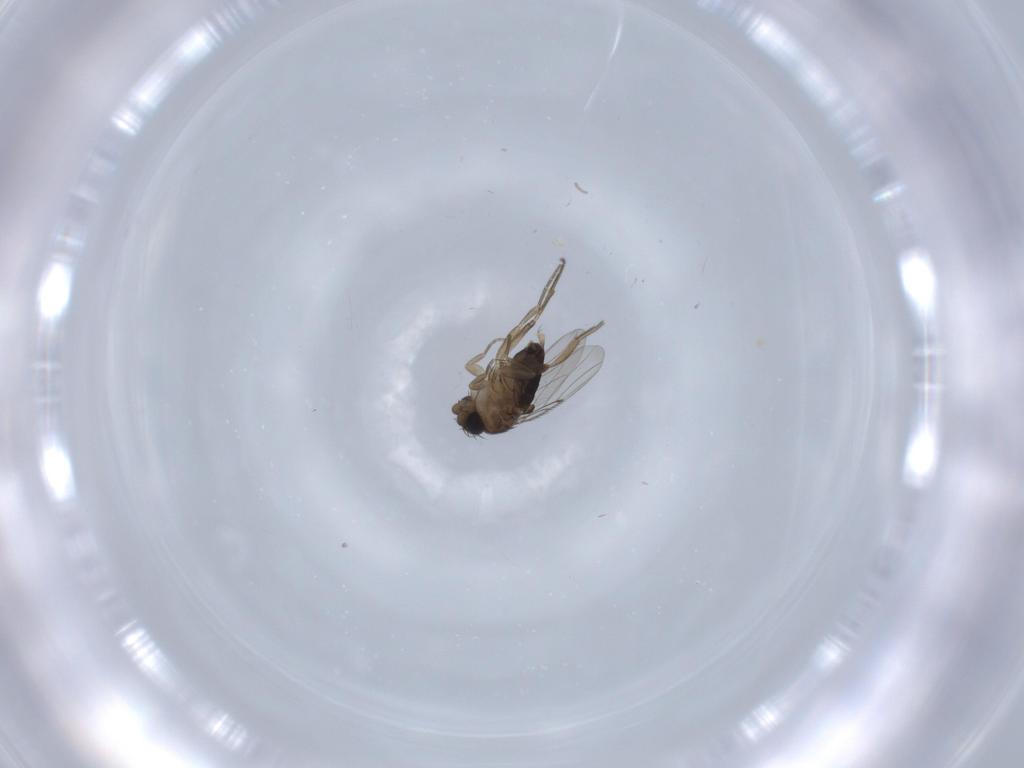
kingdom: Animalia
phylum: Arthropoda
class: Insecta
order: Diptera
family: Phoridae
